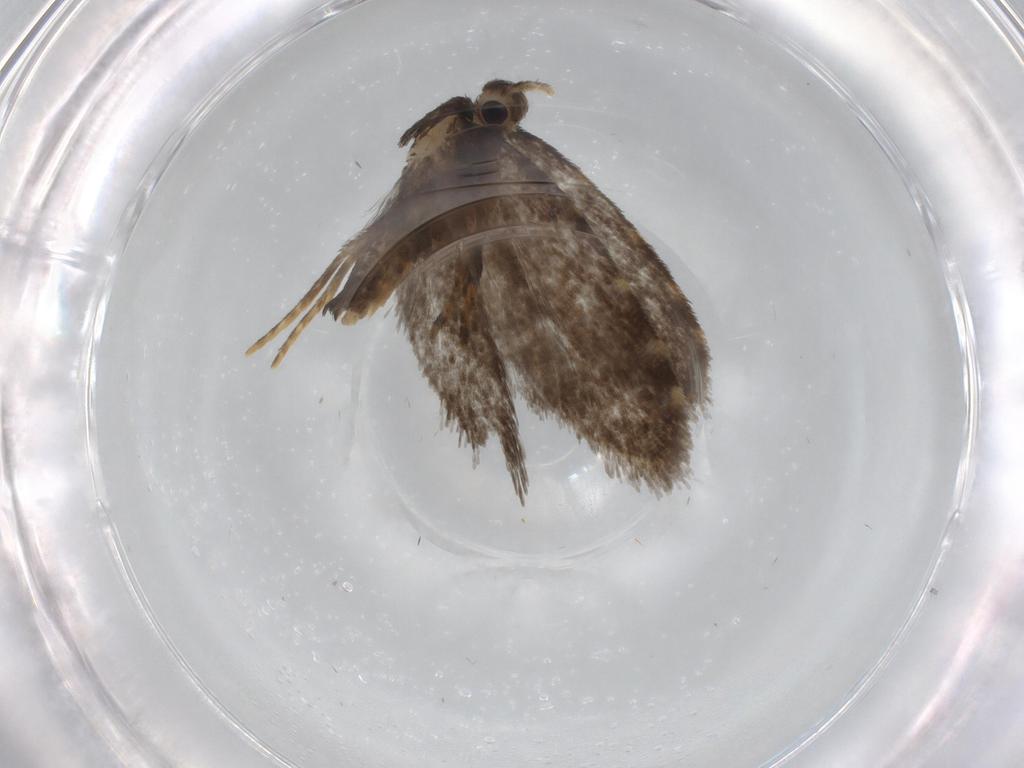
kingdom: Animalia
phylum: Arthropoda
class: Insecta
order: Lepidoptera
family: Psychidae
